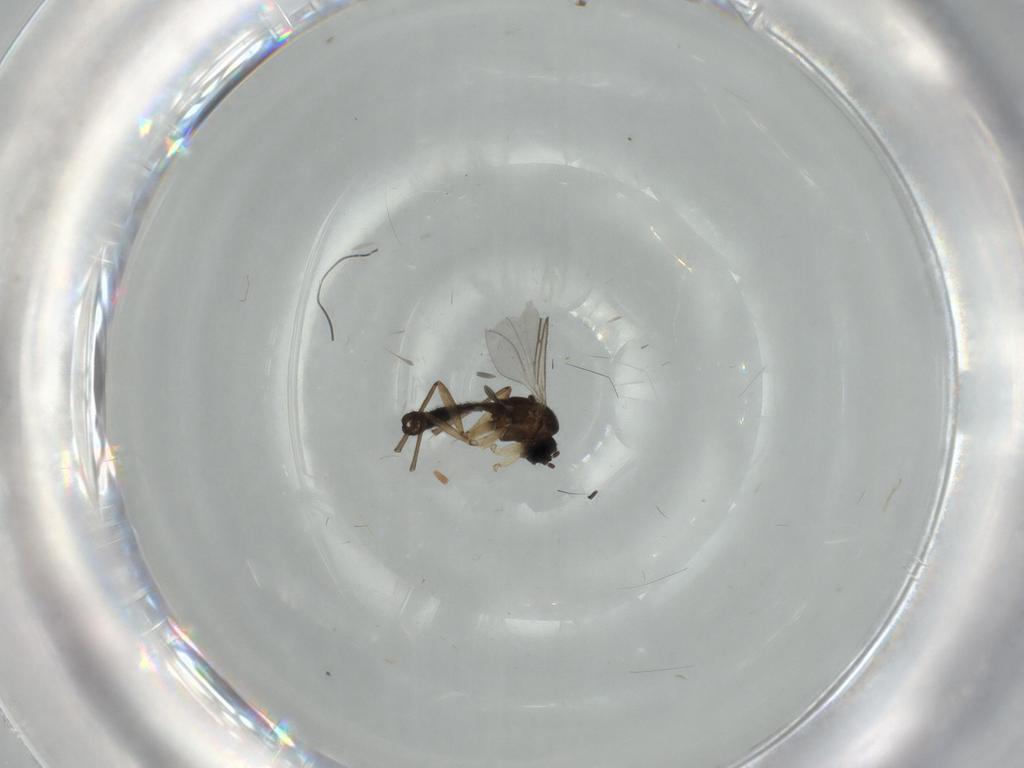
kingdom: Animalia
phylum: Arthropoda
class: Insecta
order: Diptera
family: Sciaridae
